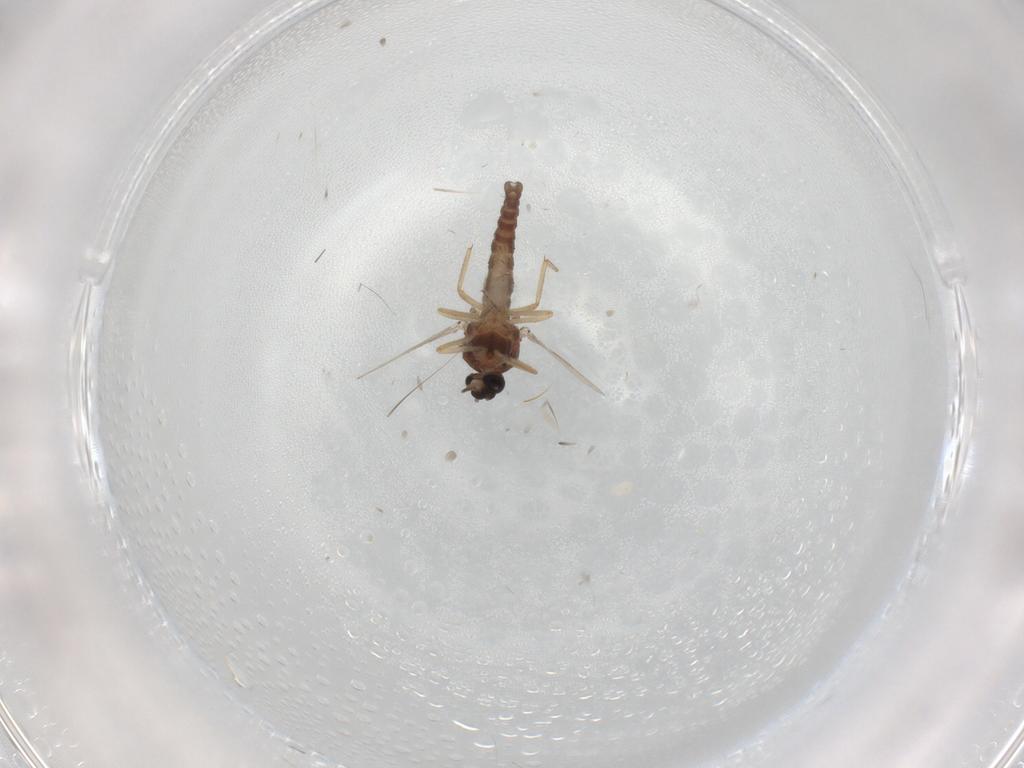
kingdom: Animalia
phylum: Arthropoda
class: Insecta
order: Diptera
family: Ceratopogonidae
